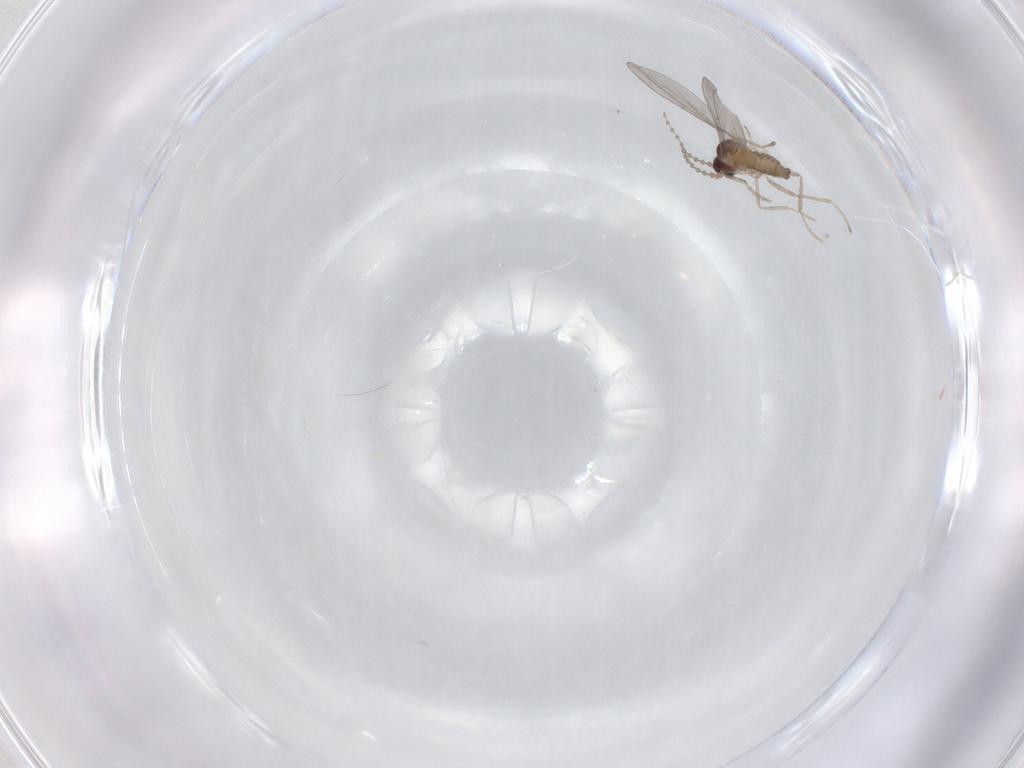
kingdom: Animalia
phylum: Arthropoda
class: Insecta
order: Diptera
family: Cecidomyiidae
